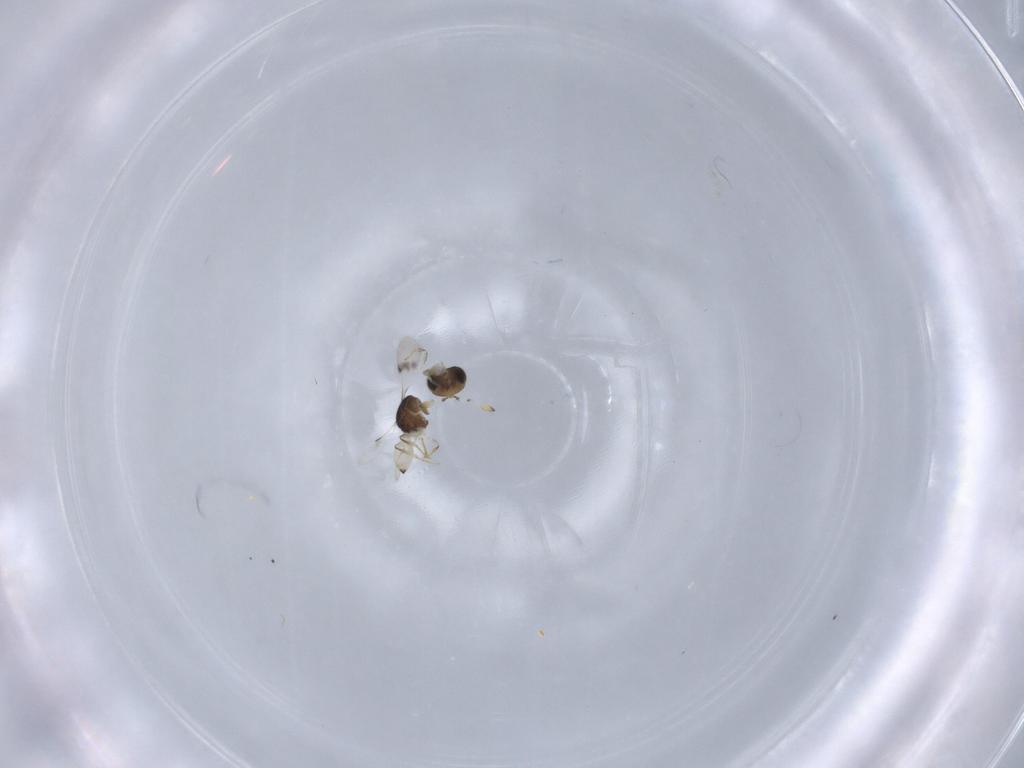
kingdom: Animalia
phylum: Arthropoda
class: Insecta
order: Hymenoptera
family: Scelionidae
